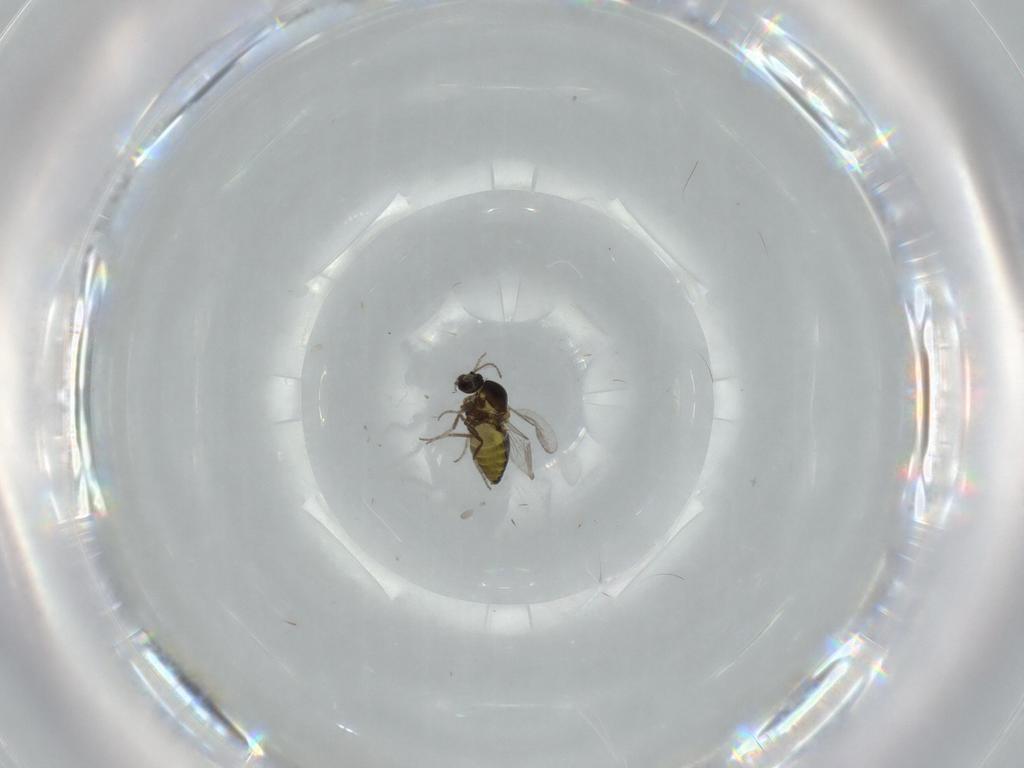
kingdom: Animalia
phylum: Arthropoda
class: Insecta
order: Diptera
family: Ceratopogonidae
